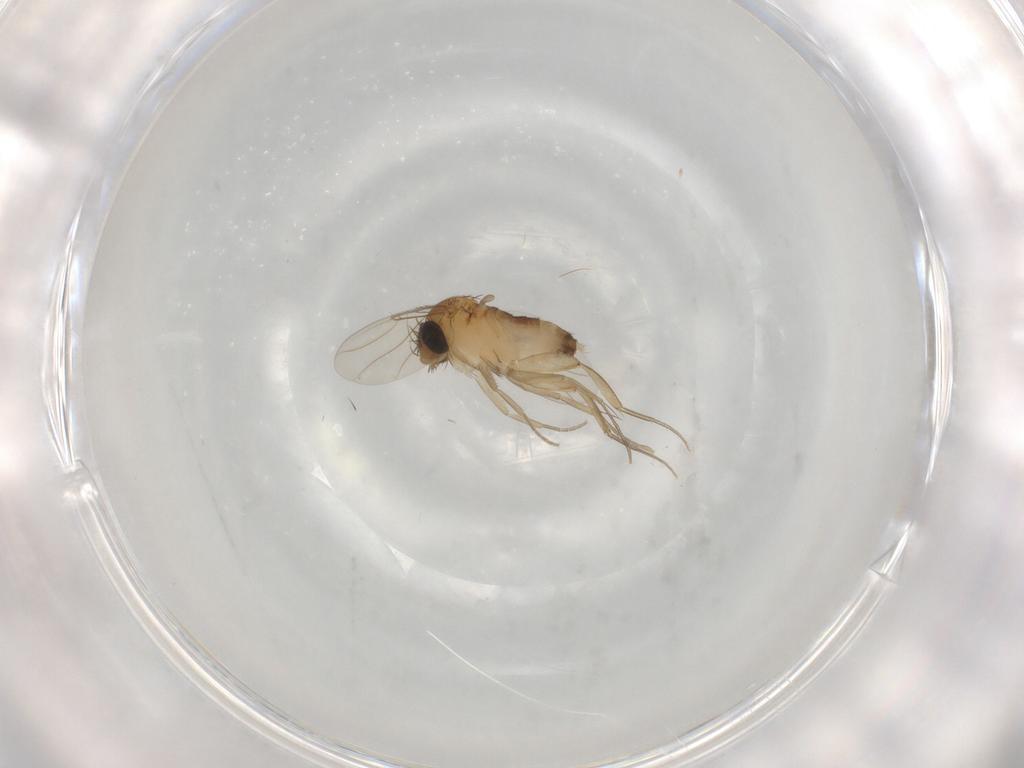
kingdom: Animalia
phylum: Arthropoda
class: Insecta
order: Diptera
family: Phoridae
